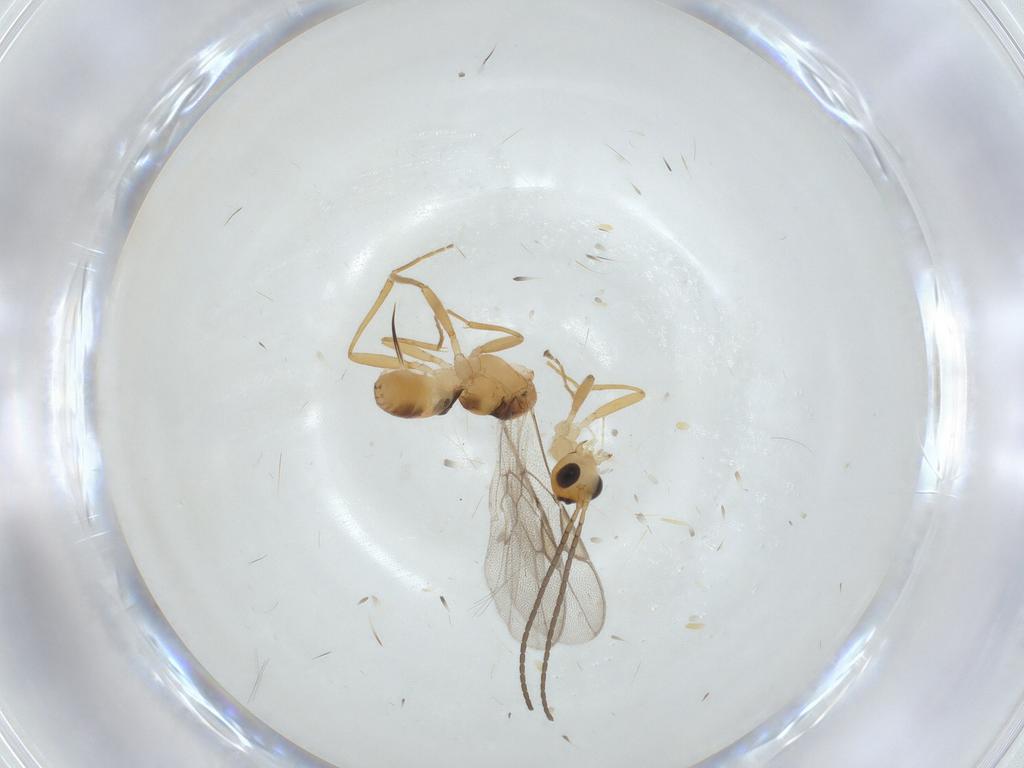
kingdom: Animalia
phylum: Arthropoda
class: Insecta
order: Hymenoptera
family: Braconidae
